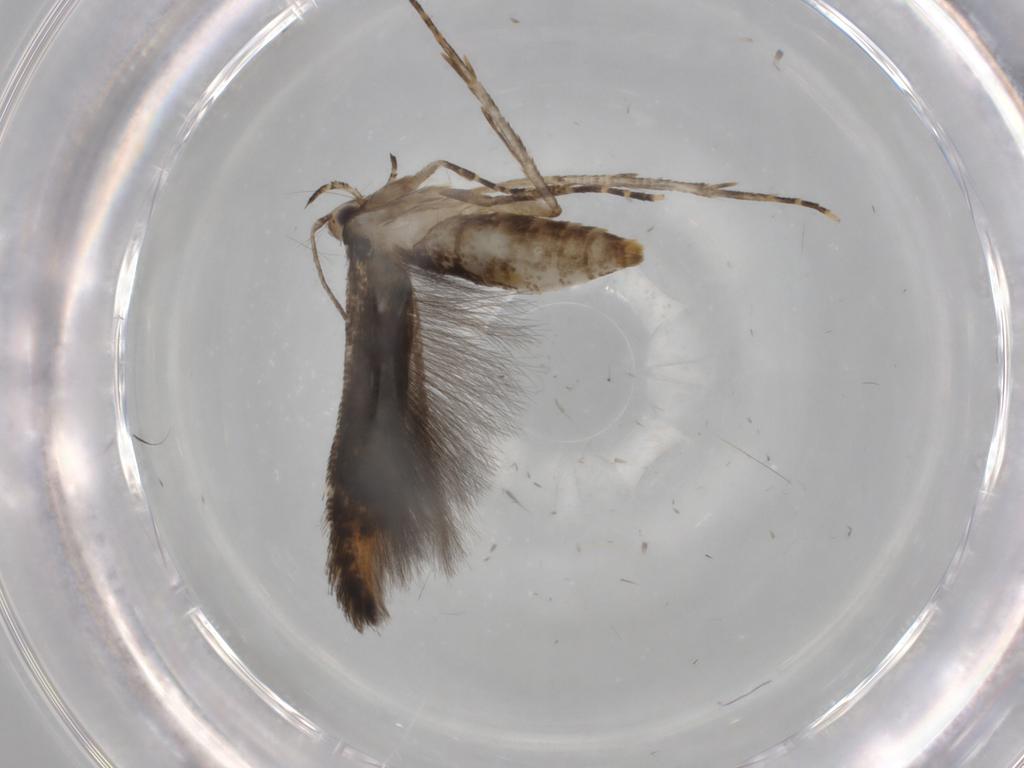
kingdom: Animalia
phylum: Arthropoda
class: Insecta
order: Lepidoptera
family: Cosmopterigidae
